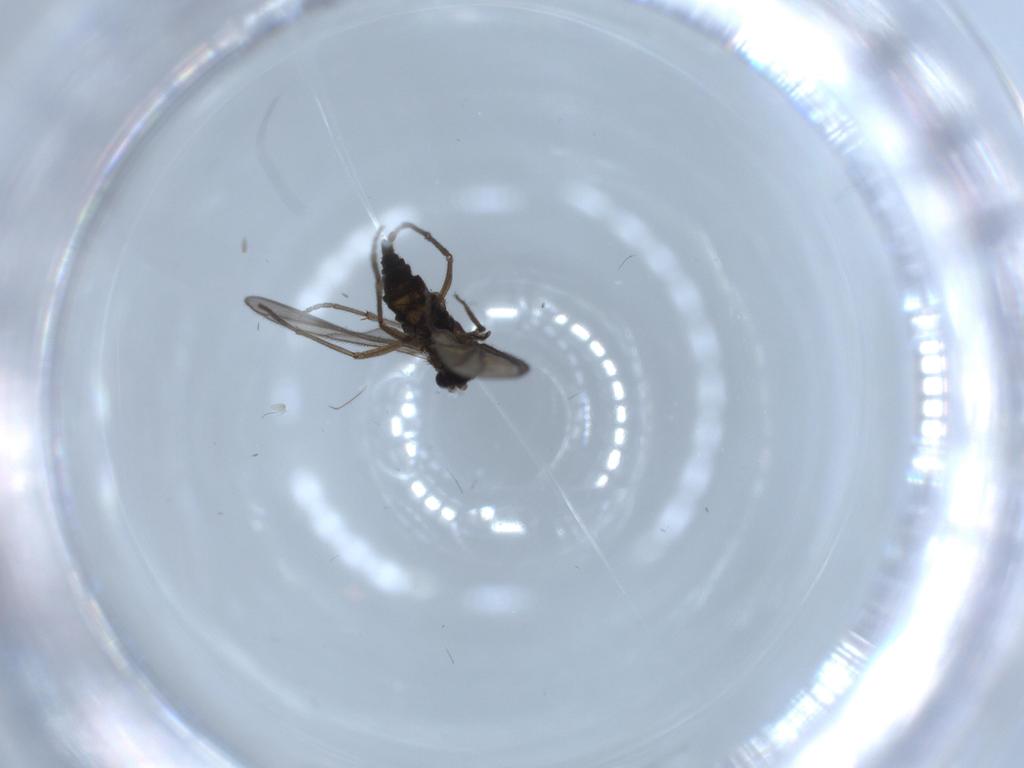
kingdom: Animalia
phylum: Arthropoda
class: Insecta
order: Diptera
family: Sciaridae
